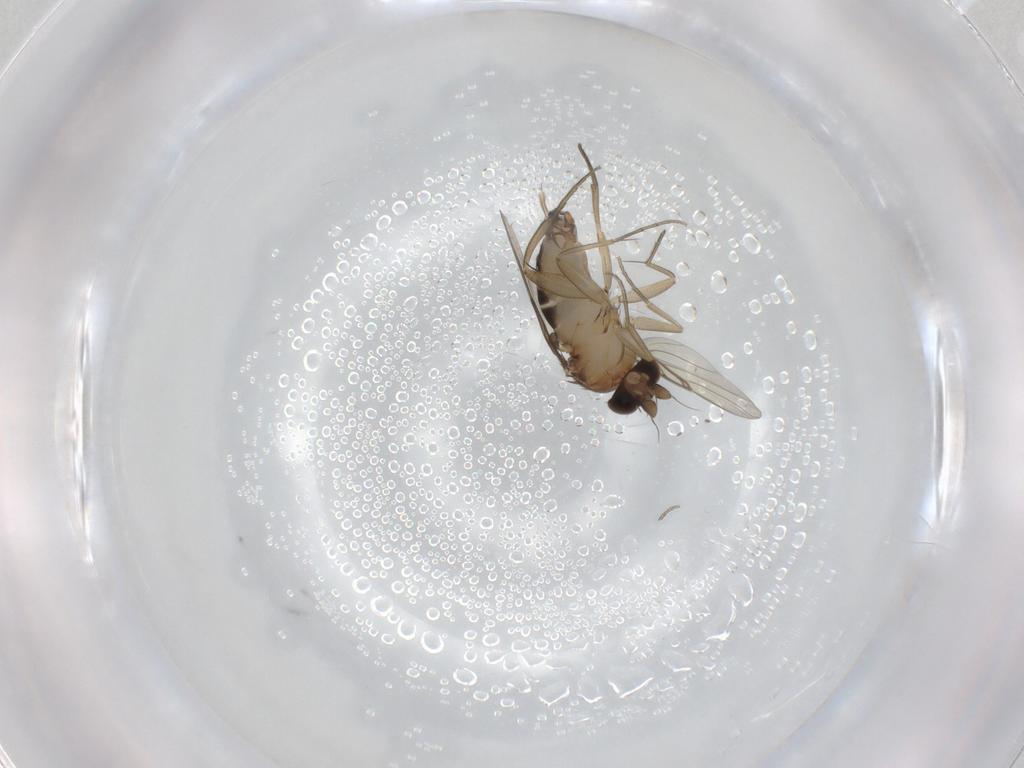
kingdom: Animalia
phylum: Arthropoda
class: Insecta
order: Diptera
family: Phoridae
